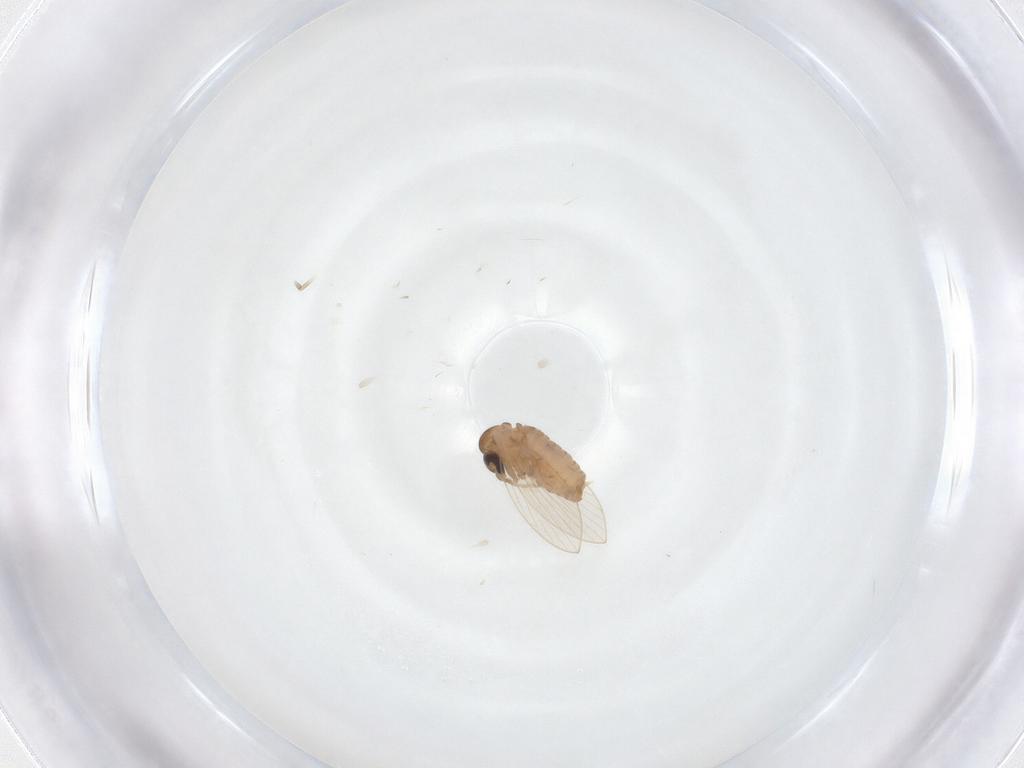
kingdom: Animalia
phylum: Arthropoda
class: Insecta
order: Diptera
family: Psychodidae
